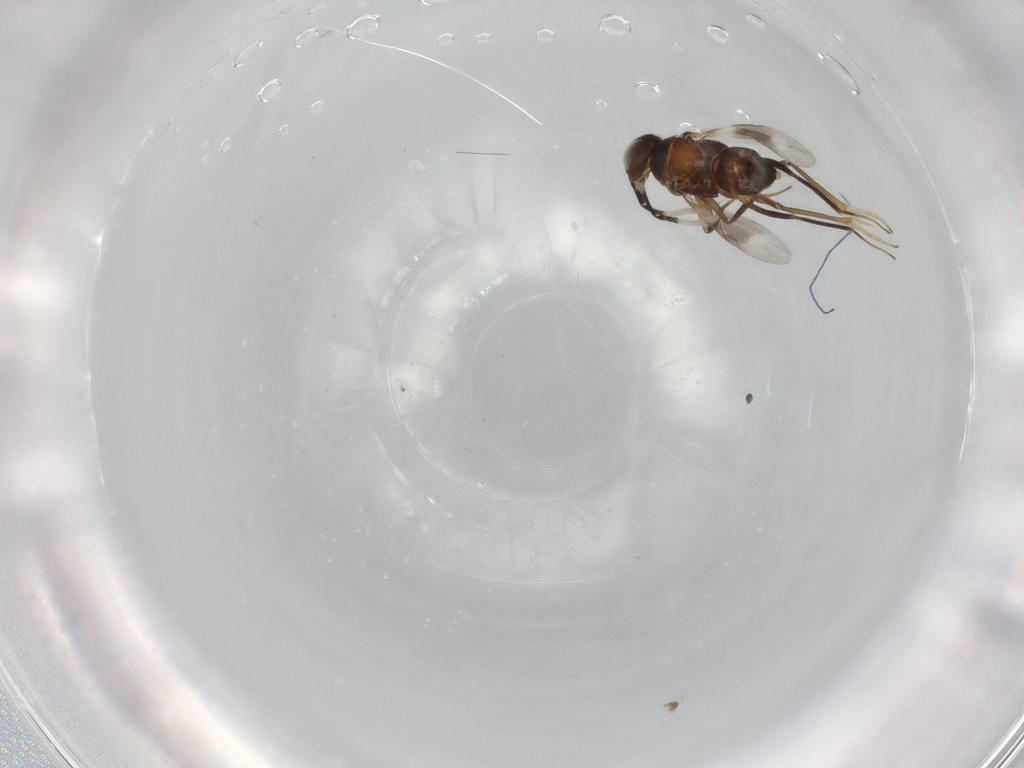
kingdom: Animalia
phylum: Arthropoda
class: Insecta
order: Hymenoptera
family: Encyrtidae
